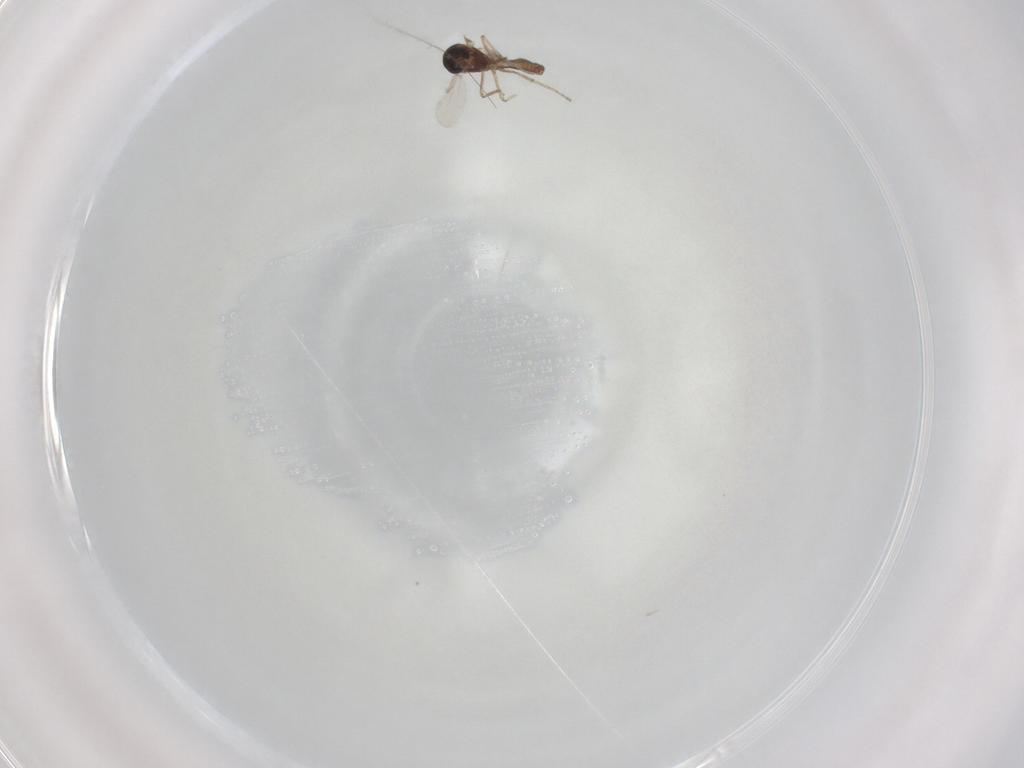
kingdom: Animalia
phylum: Arthropoda
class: Insecta
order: Diptera
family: Ceratopogonidae
